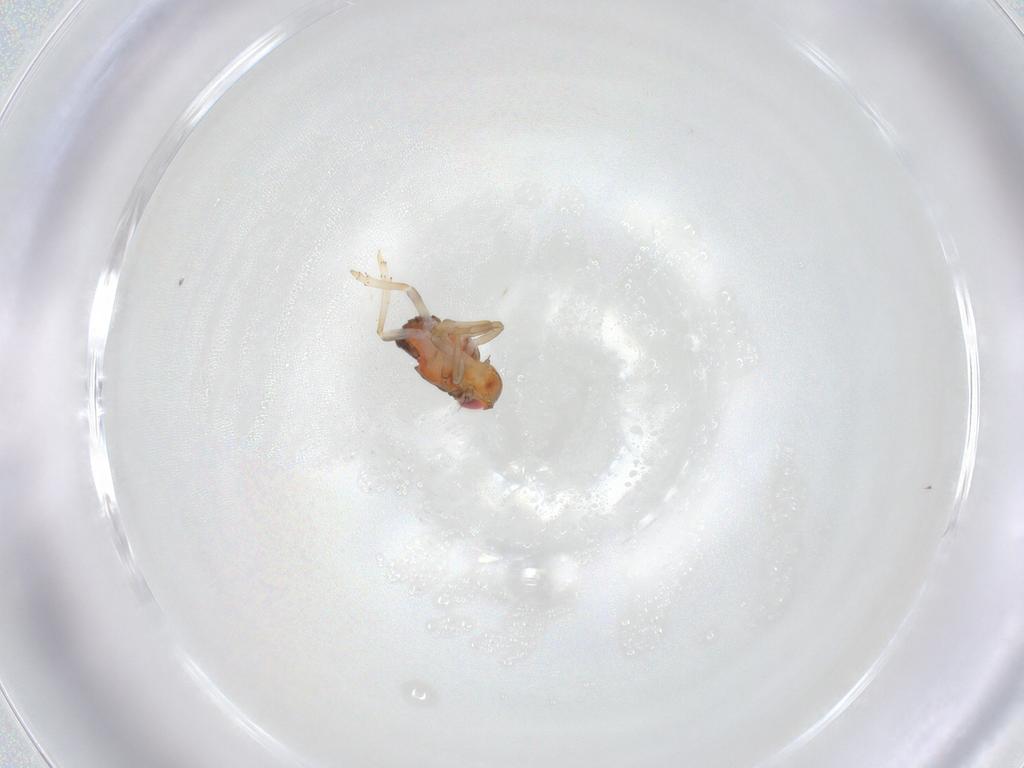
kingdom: Animalia
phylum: Arthropoda
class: Insecta
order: Hemiptera
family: Issidae
